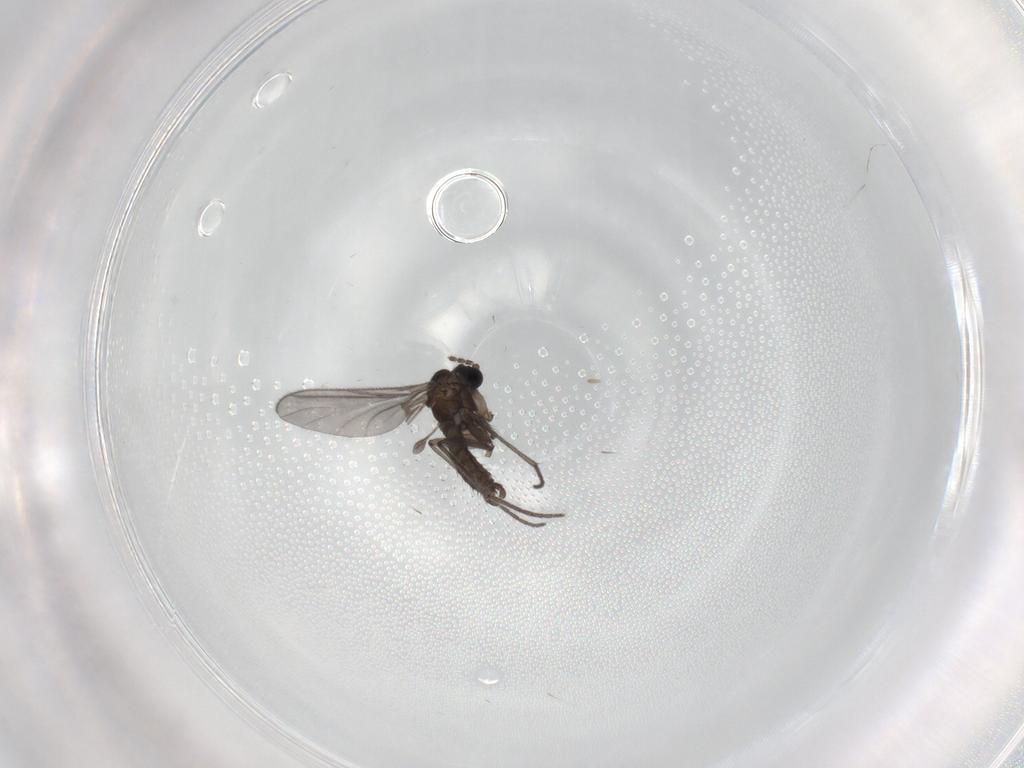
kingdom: Animalia
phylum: Arthropoda
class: Insecta
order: Diptera
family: Sciaridae
